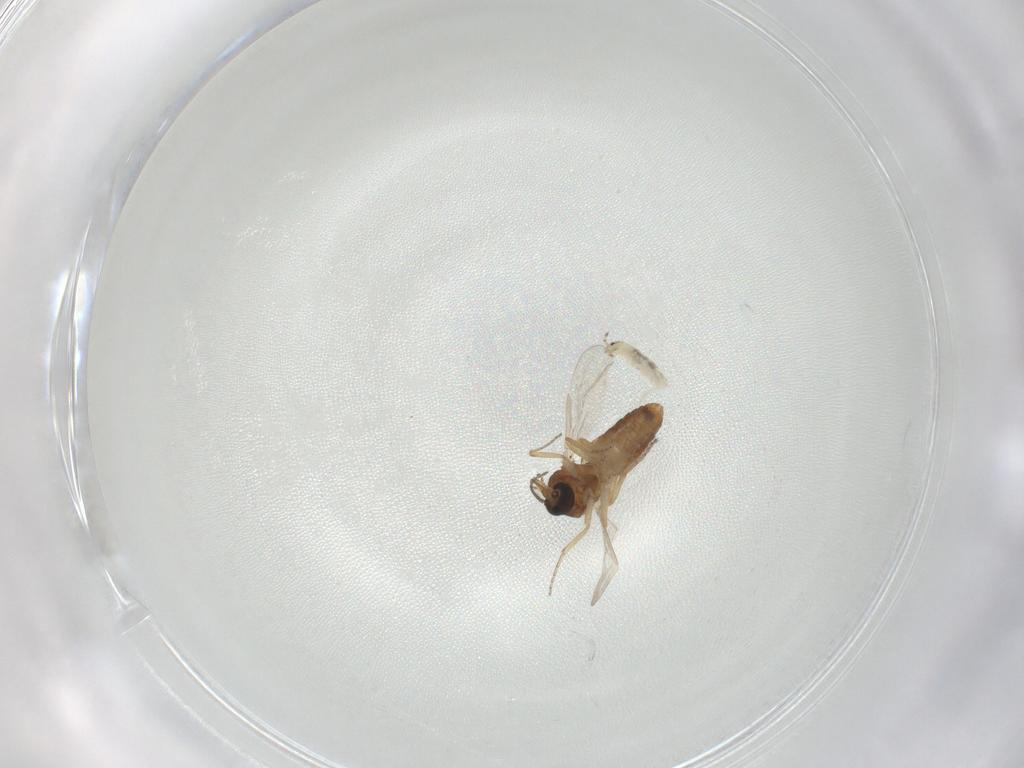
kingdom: Animalia
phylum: Arthropoda
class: Insecta
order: Diptera
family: Ceratopogonidae
